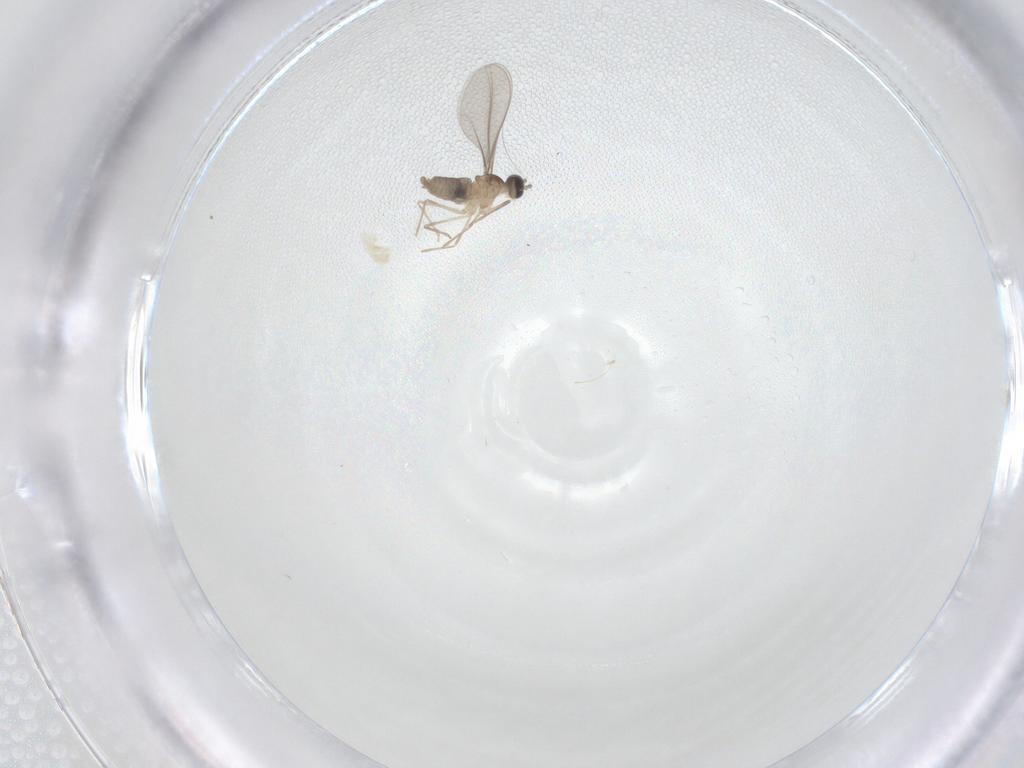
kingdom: Animalia
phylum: Arthropoda
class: Insecta
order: Diptera
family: Cecidomyiidae
